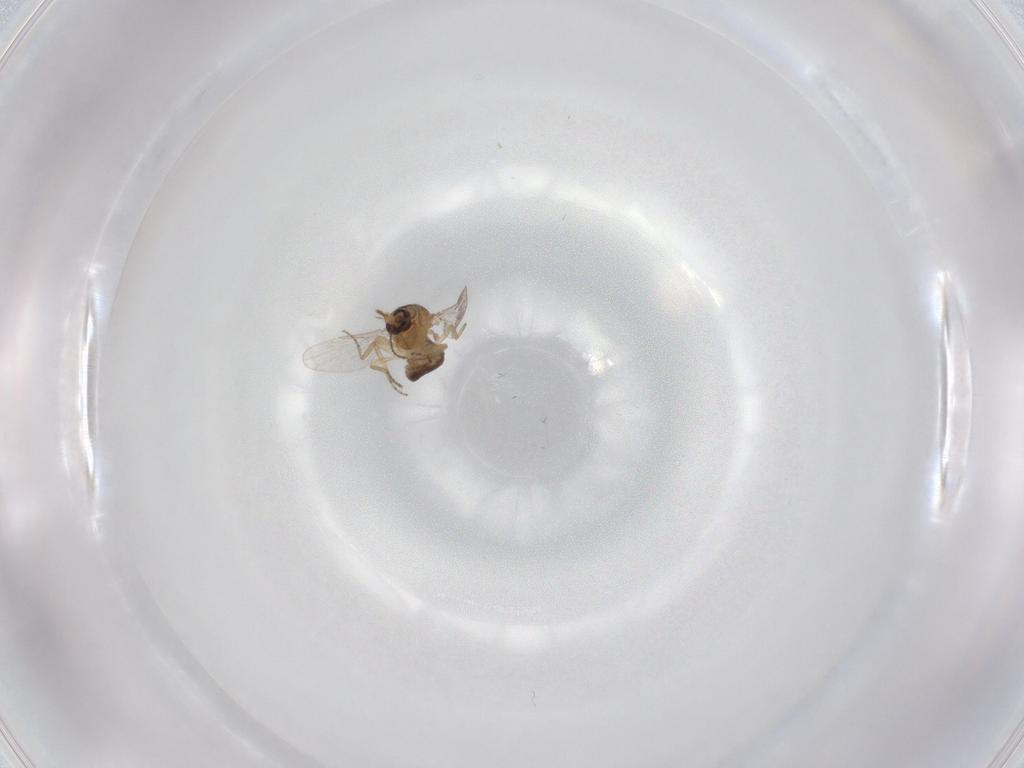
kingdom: Animalia
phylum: Arthropoda
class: Insecta
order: Diptera
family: Ceratopogonidae
